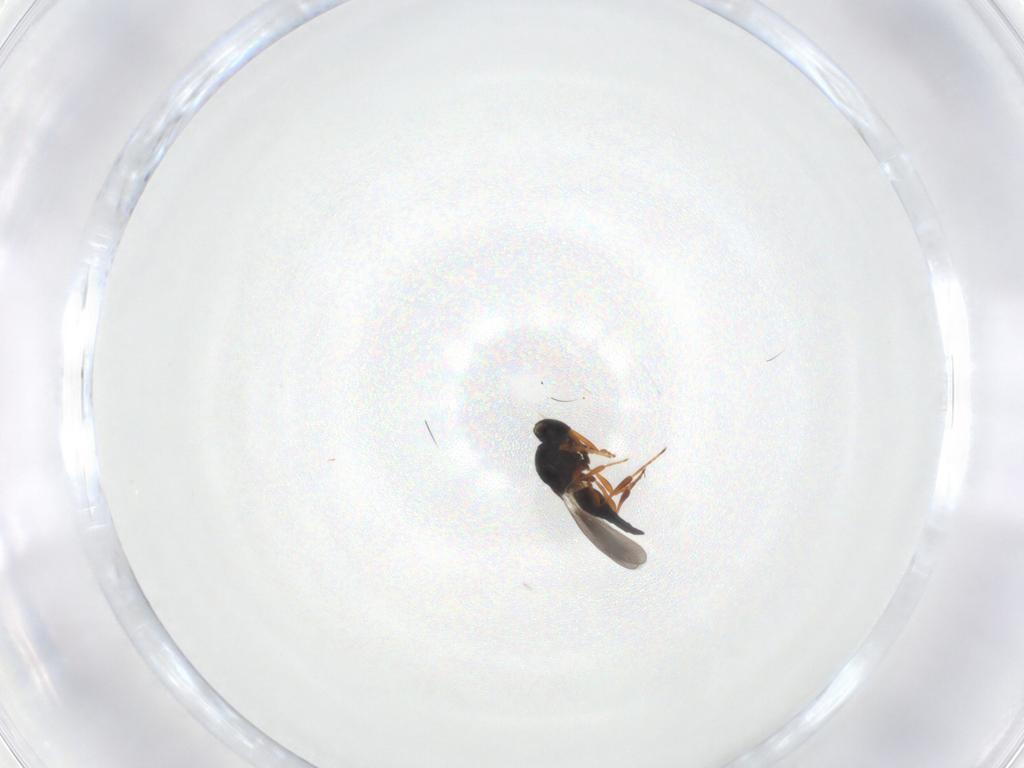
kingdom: Animalia
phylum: Arthropoda
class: Insecta
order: Hymenoptera
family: Platygastridae
